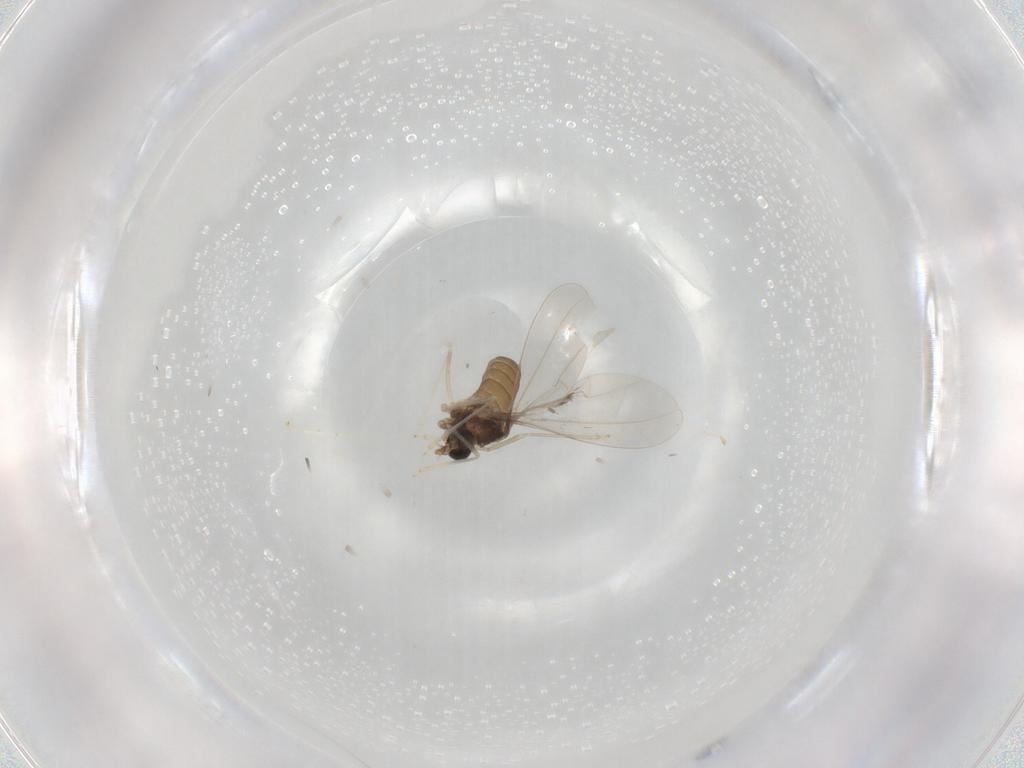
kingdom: Animalia
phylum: Arthropoda
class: Insecta
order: Diptera
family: Cecidomyiidae
